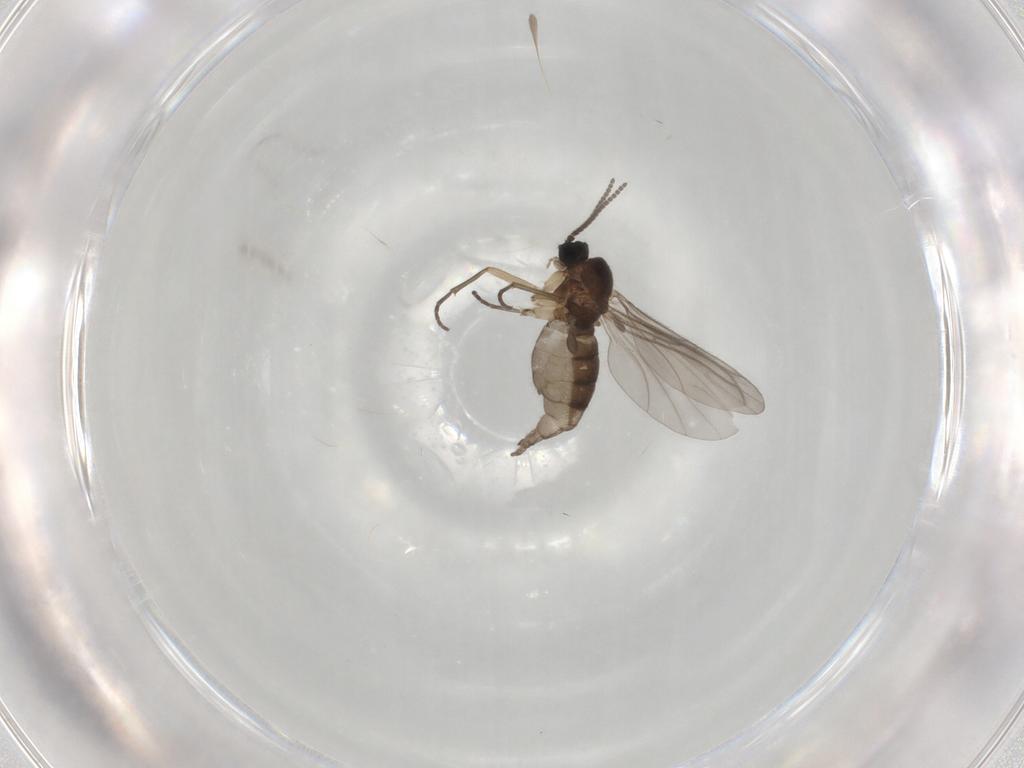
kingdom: Animalia
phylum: Arthropoda
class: Insecta
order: Diptera
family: Sciaridae
